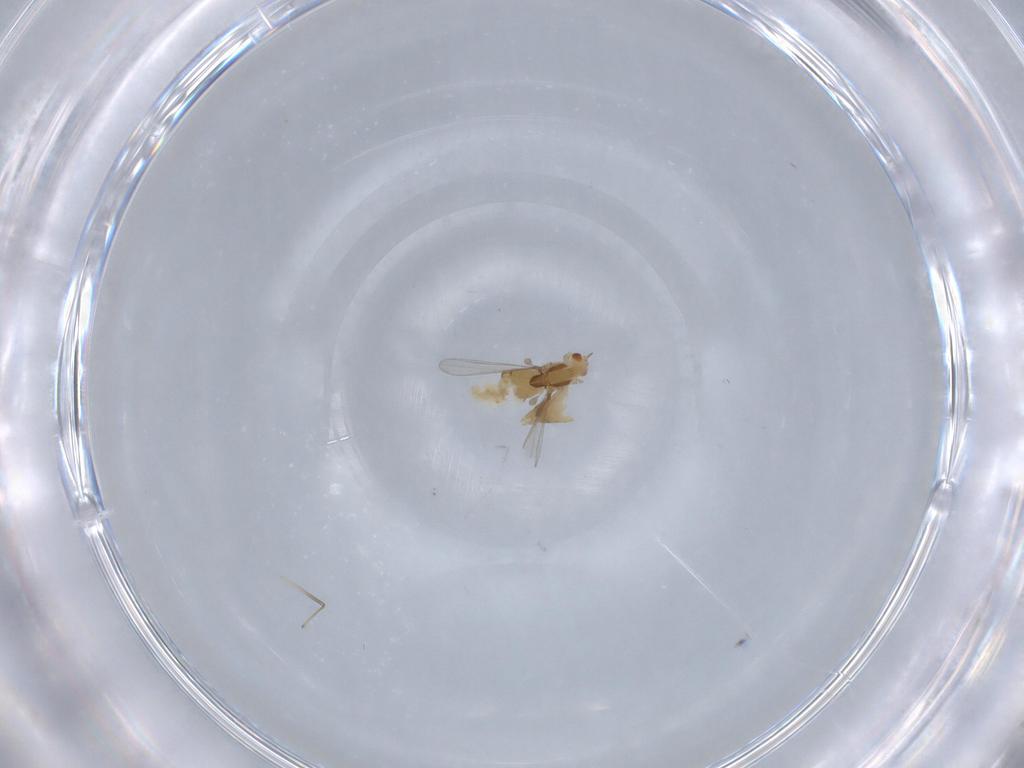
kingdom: Animalia
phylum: Arthropoda
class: Insecta
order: Diptera
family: Chironomidae
